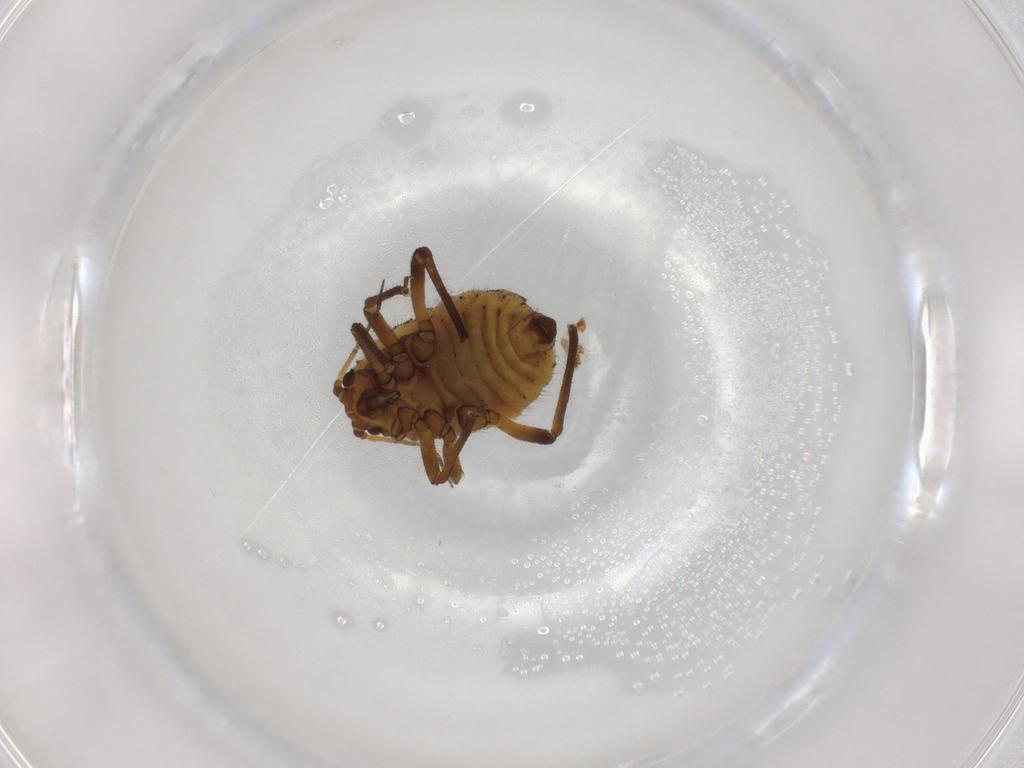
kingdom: Animalia
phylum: Arthropoda
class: Insecta
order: Hemiptera
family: Aphididae
